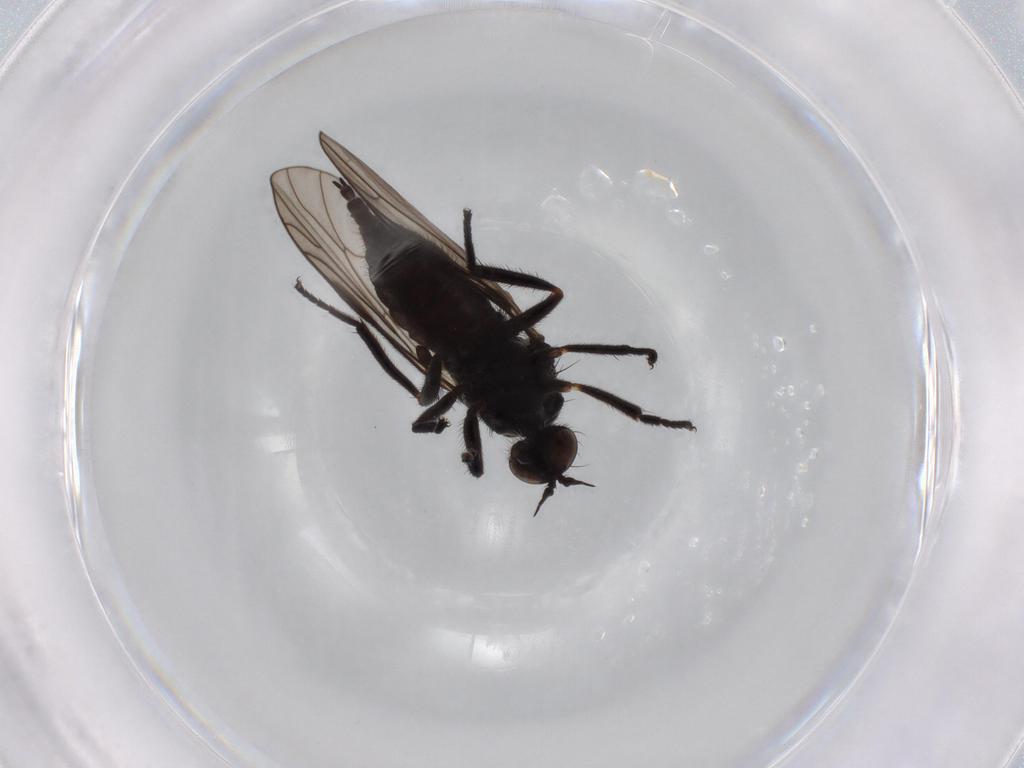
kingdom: Animalia
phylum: Arthropoda
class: Insecta
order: Diptera
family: Empididae
